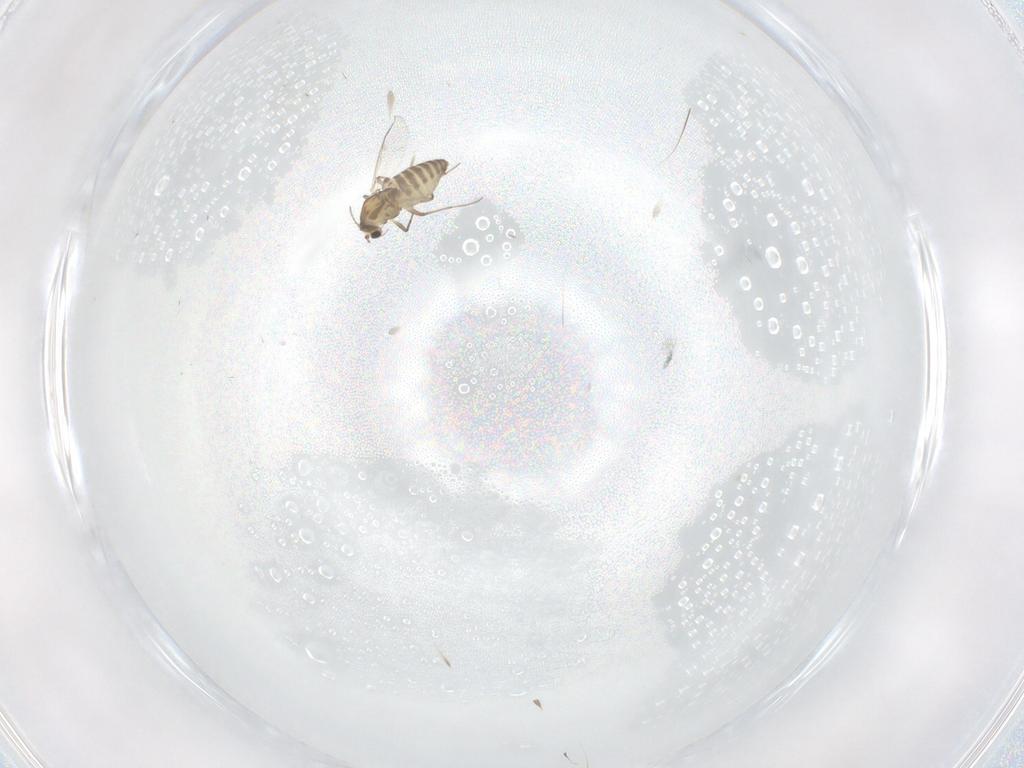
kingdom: Animalia
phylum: Arthropoda
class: Insecta
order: Diptera
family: Chironomidae
